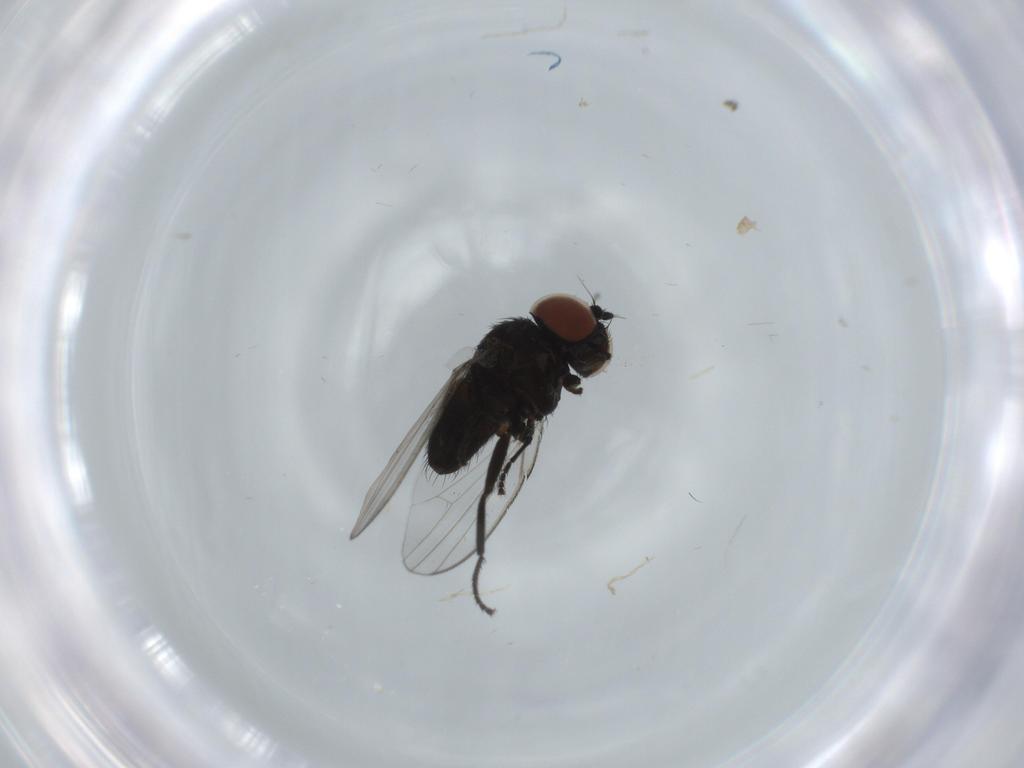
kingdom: Animalia
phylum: Arthropoda
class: Insecta
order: Diptera
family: Milichiidae
